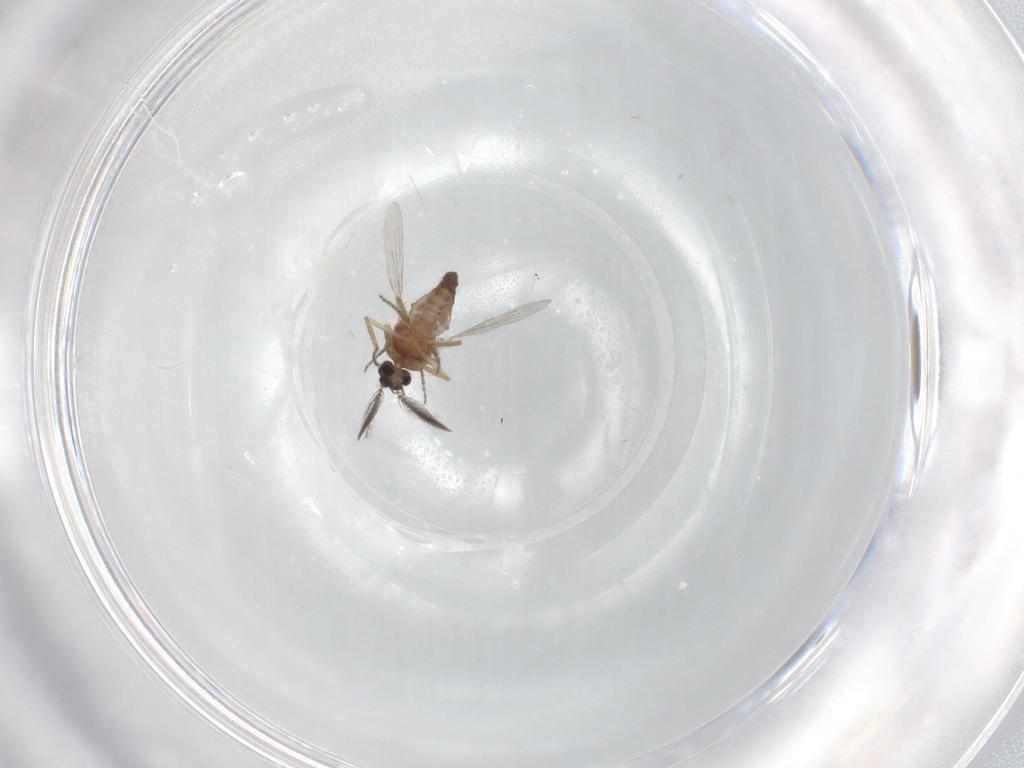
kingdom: Animalia
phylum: Arthropoda
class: Insecta
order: Diptera
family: Ceratopogonidae
